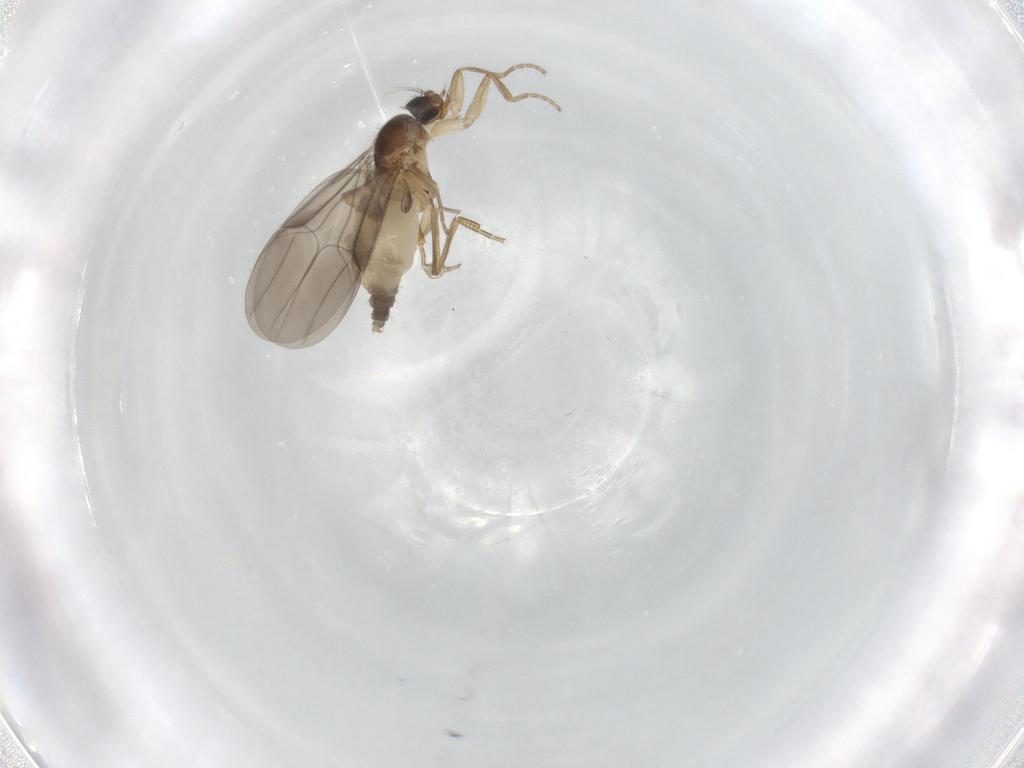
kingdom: Animalia
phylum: Arthropoda
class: Insecta
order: Diptera
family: Phoridae
